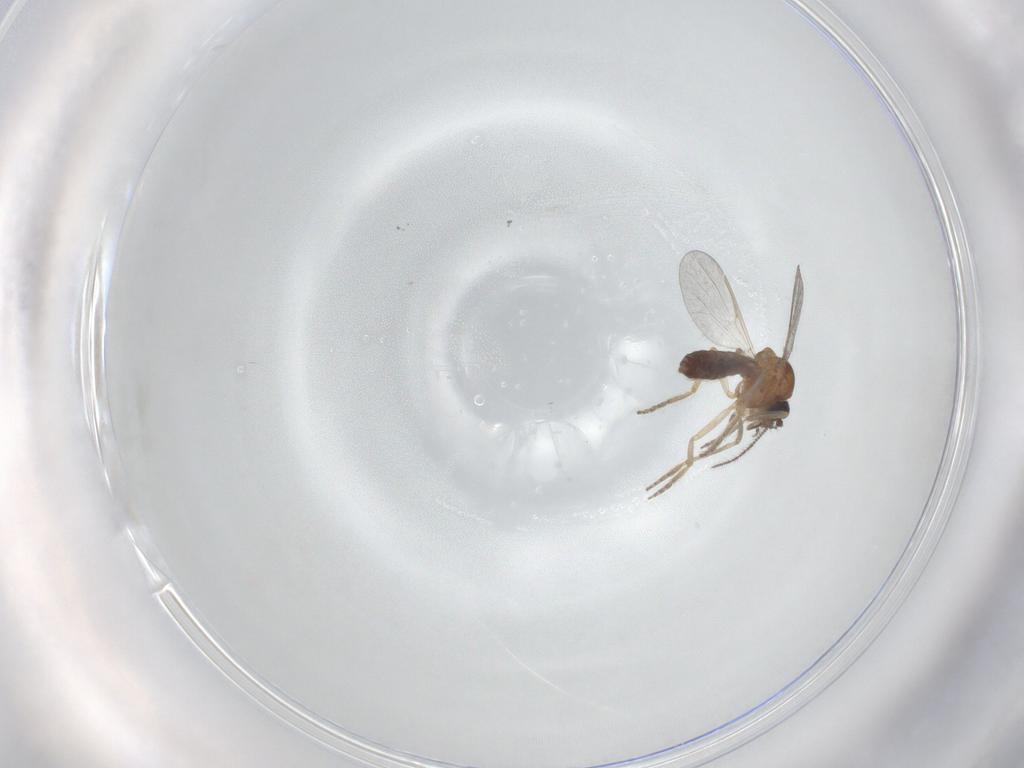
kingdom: Animalia
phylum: Arthropoda
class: Insecta
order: Diptera
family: Ceratopogonidae
